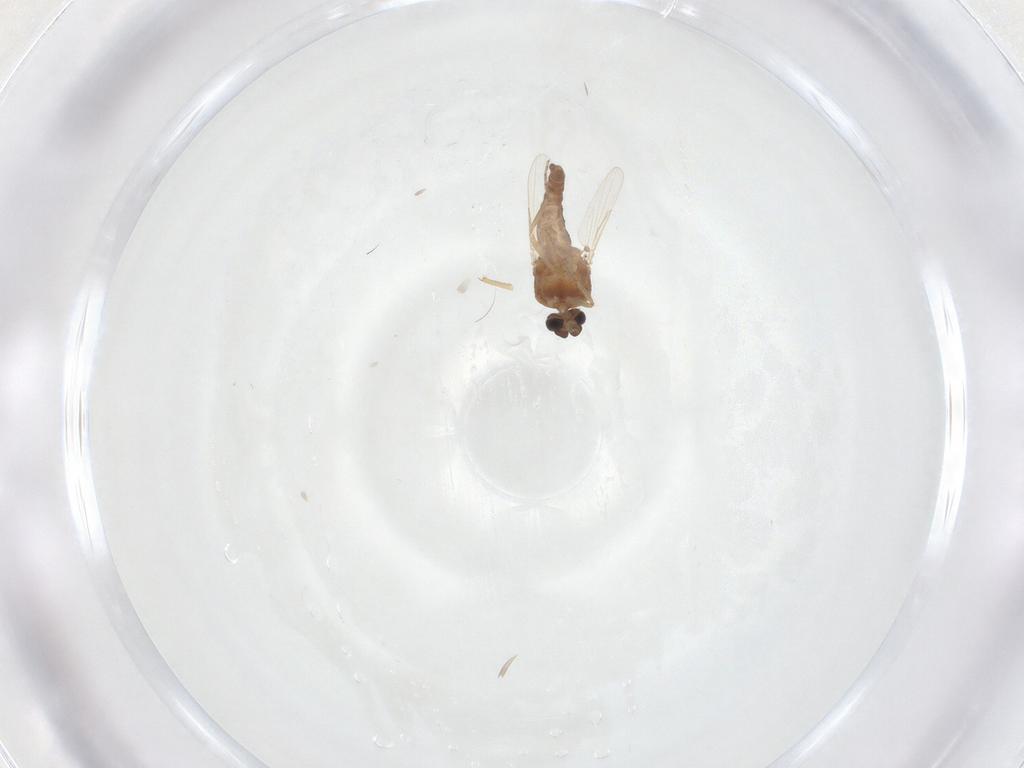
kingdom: Animalia
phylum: Arthropoda
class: Insecta
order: Diptera
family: Ceratopogonidae
